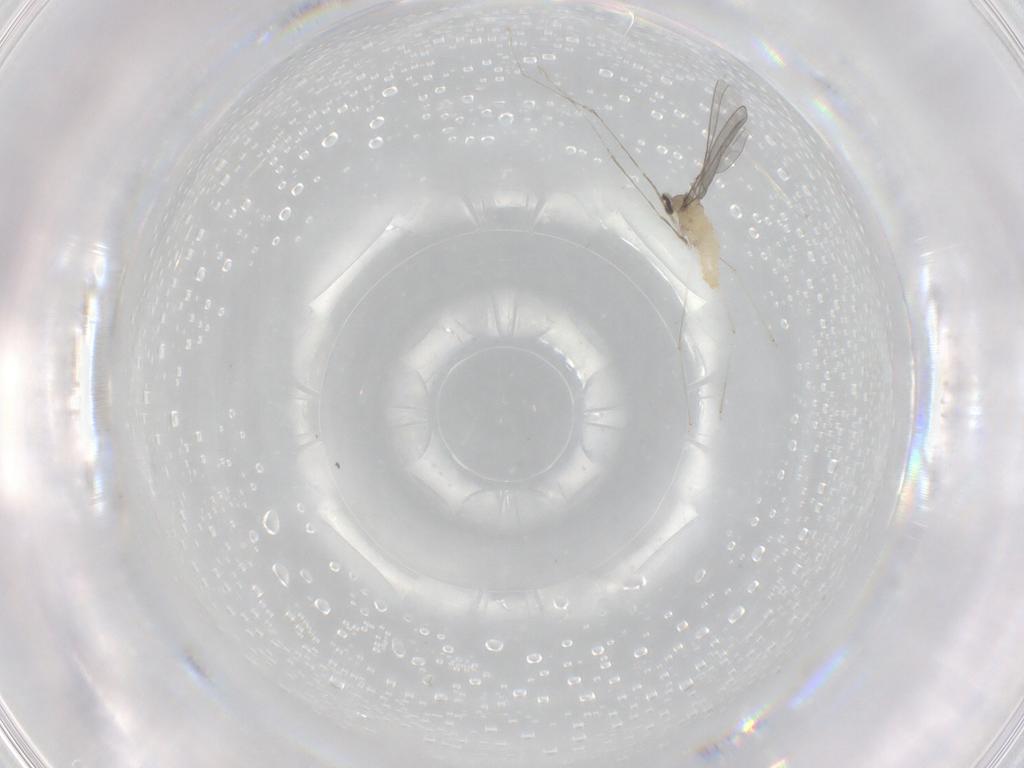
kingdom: Animalia
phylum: Arthropoda
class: Insecta
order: Diptera
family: Cecidomyiidae
